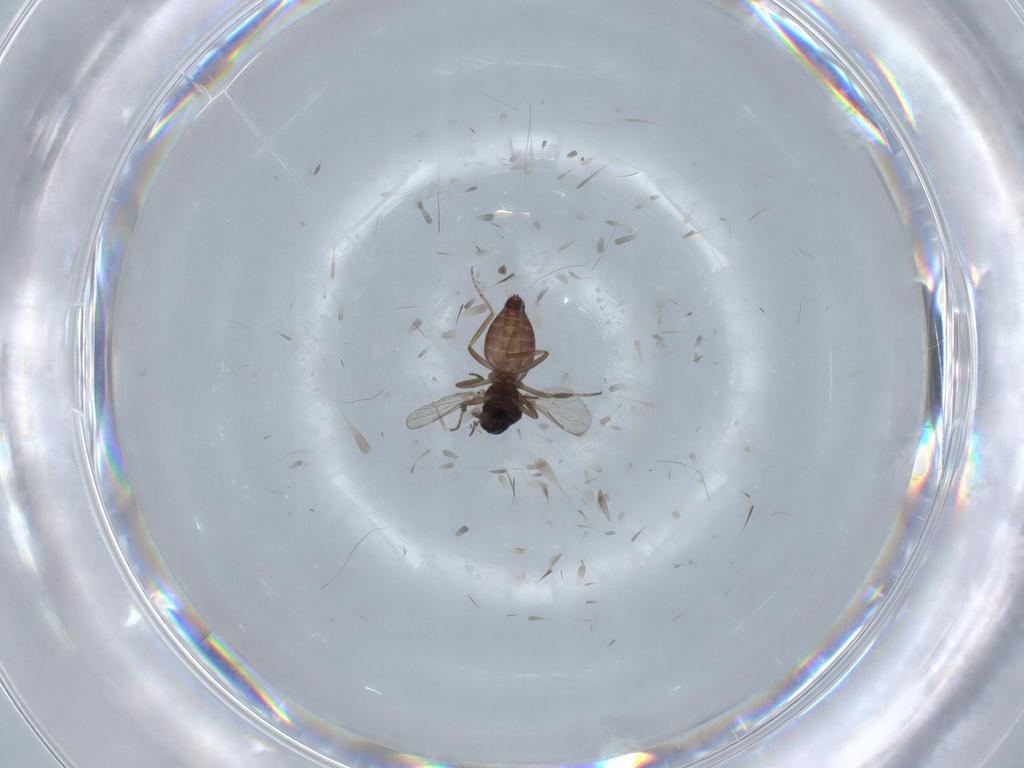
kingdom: Animalia
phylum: Arthropoda
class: Insecta
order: Diptera
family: Ceratopogonidae
